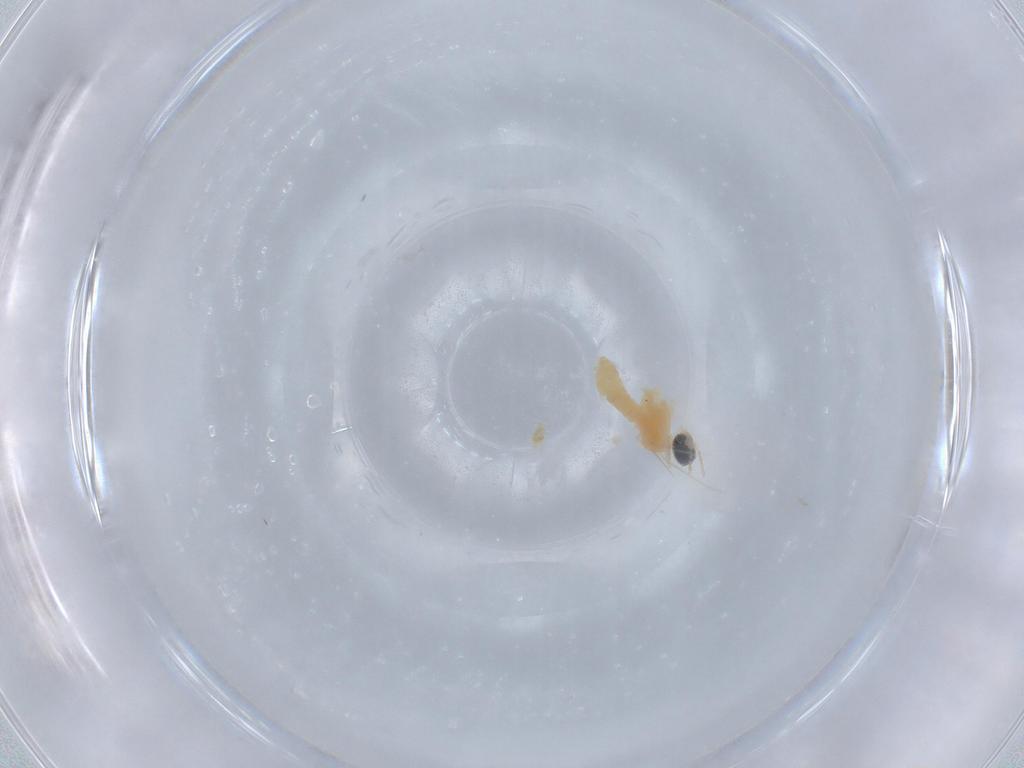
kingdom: Animalia
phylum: Arthropoda
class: Insecta
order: Diptera
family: Cecidomyiidae
